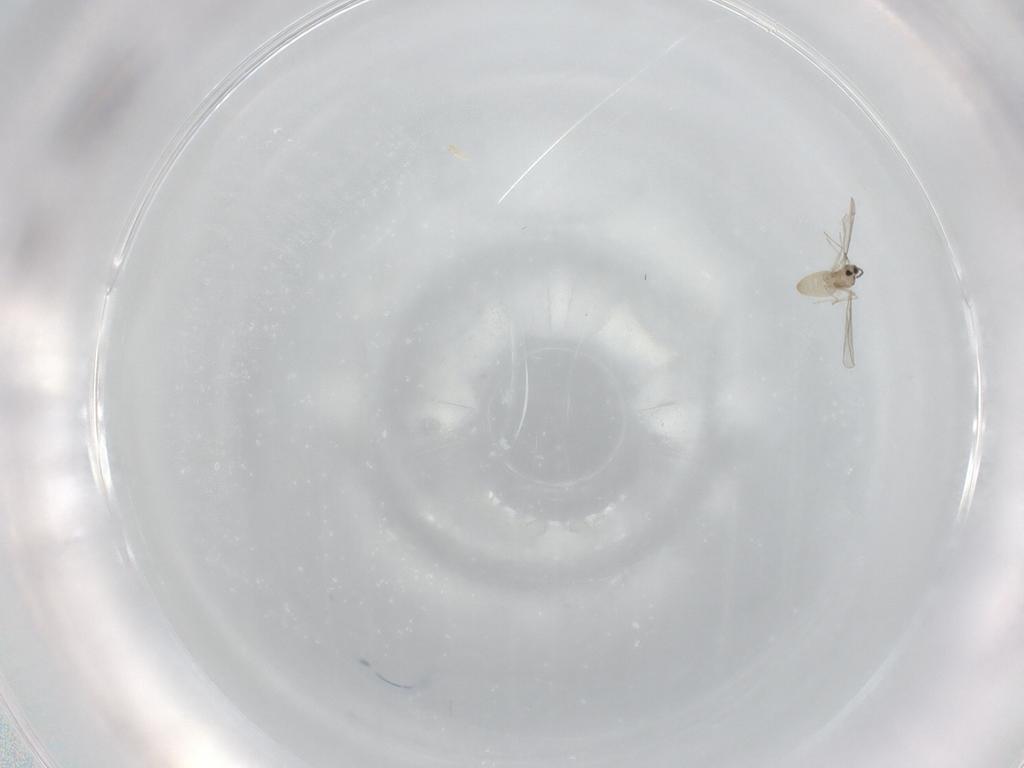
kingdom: Animalia
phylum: Arthropoda
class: Insecta
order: Diptera
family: Cecidomyiidae
